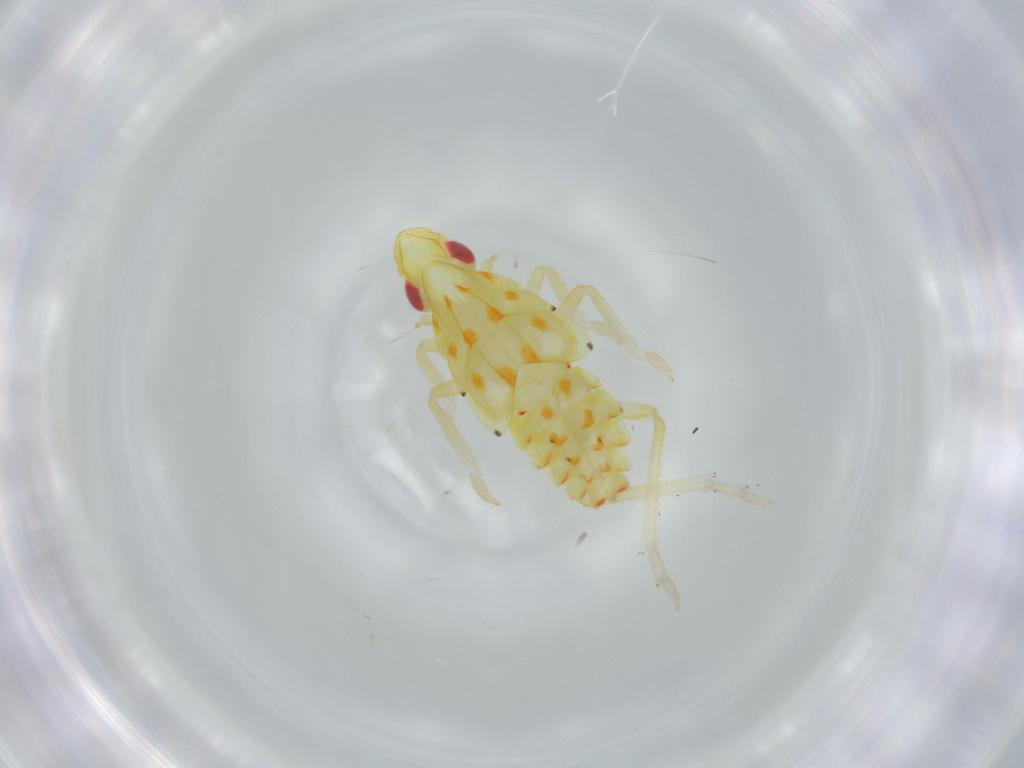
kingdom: Animalia
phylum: Arthropoda
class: Insecta
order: Hemiptera
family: Tropiduchidae
